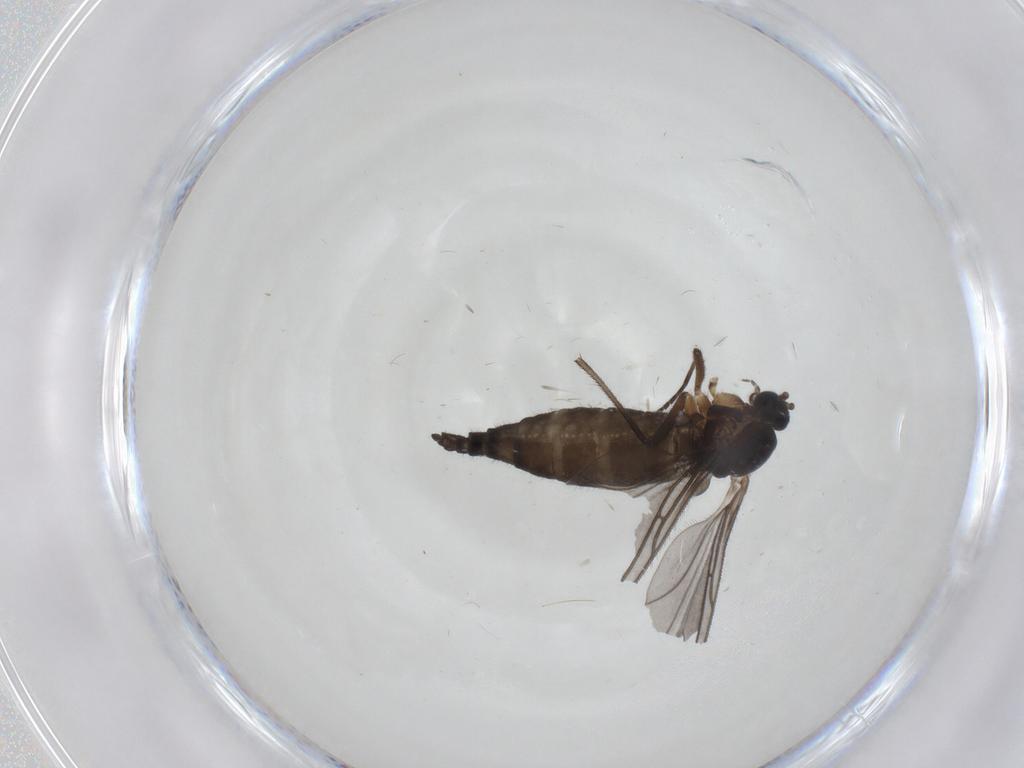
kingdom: Animalia
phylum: Arthropoda
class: Insecta
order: Diptera
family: Sciaridae
